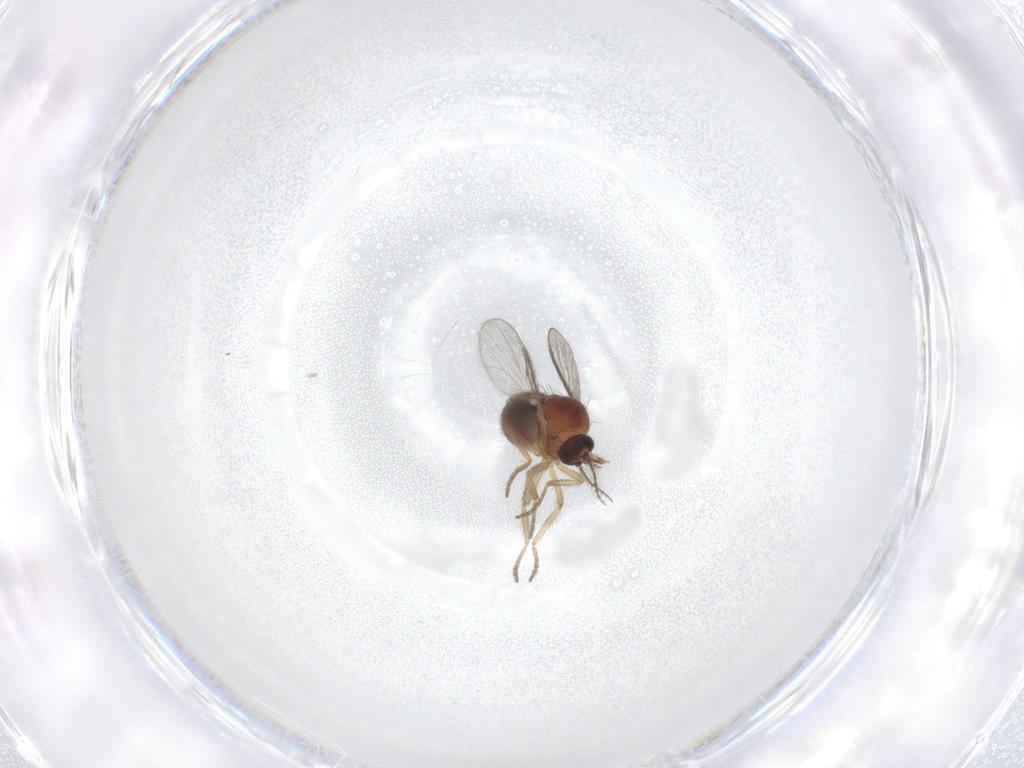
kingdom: Animalia
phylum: Arthropoda
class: Insecta
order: Diptera
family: Ceratopogonidae
